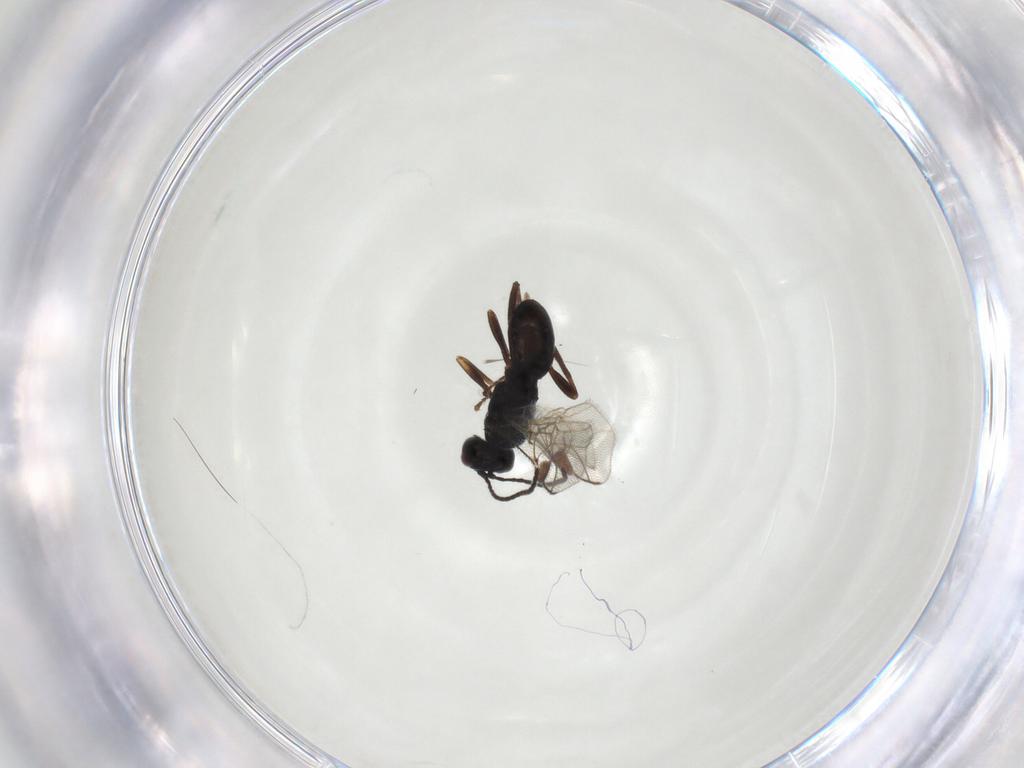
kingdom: Animalia
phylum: Arthropoda
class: Insecta
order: Hymenoptera
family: Braconidae
